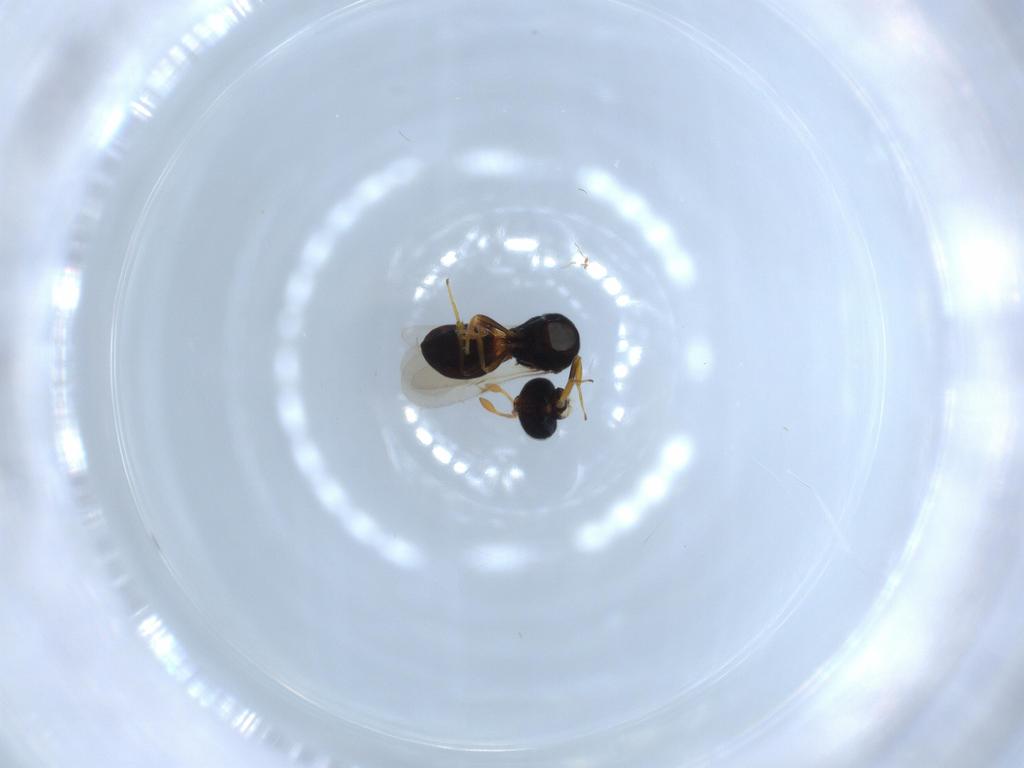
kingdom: Animalia
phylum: Arthropoda
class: Insecta
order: Hymenoptera
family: Scelionidae
